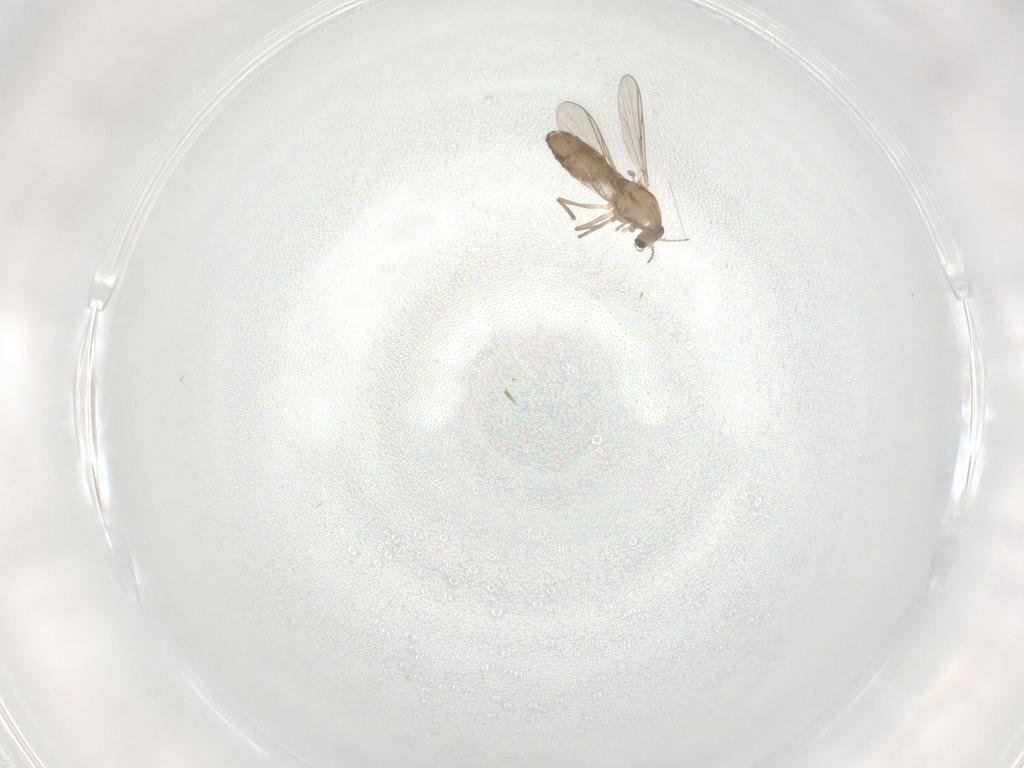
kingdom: Animalia
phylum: Arthropoda
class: Insecta
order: Diptera
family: Chironomidae
